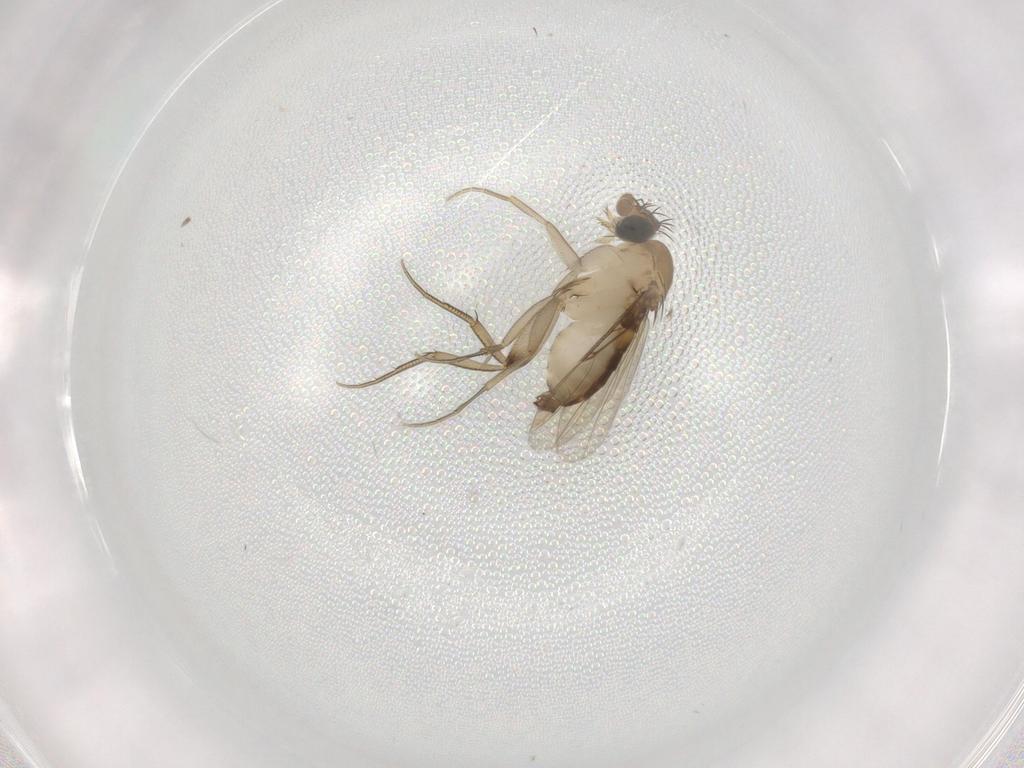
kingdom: Animalia
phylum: Arthropoda
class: Insecta
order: Diptera
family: Phoridae
